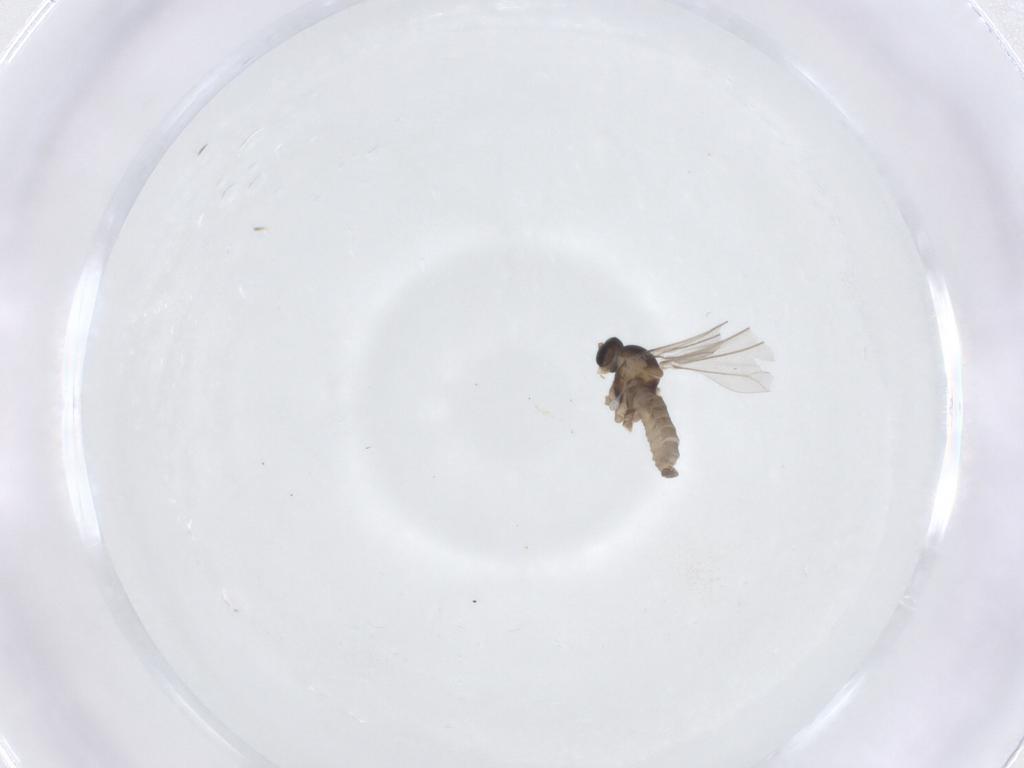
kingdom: Animalia
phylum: Arthropoda
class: Insecta
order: Diptera
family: Cecidomyiidae
